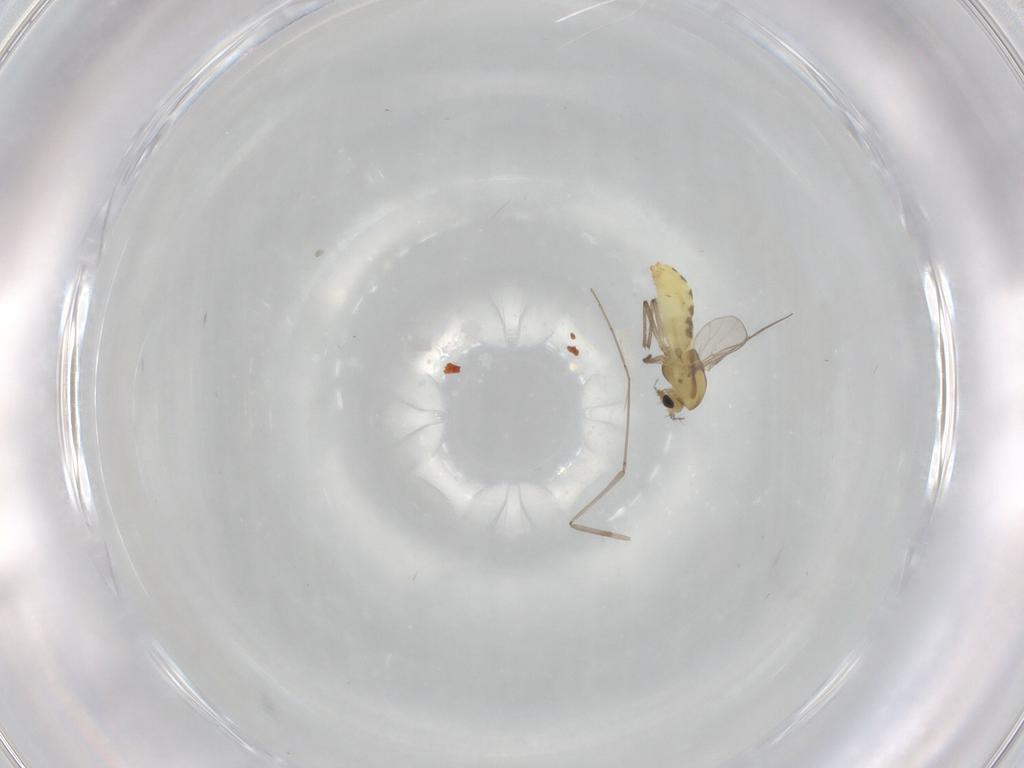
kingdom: Animalia
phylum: Arthropoda
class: Insecta
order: Diptera
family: Chironomidae
